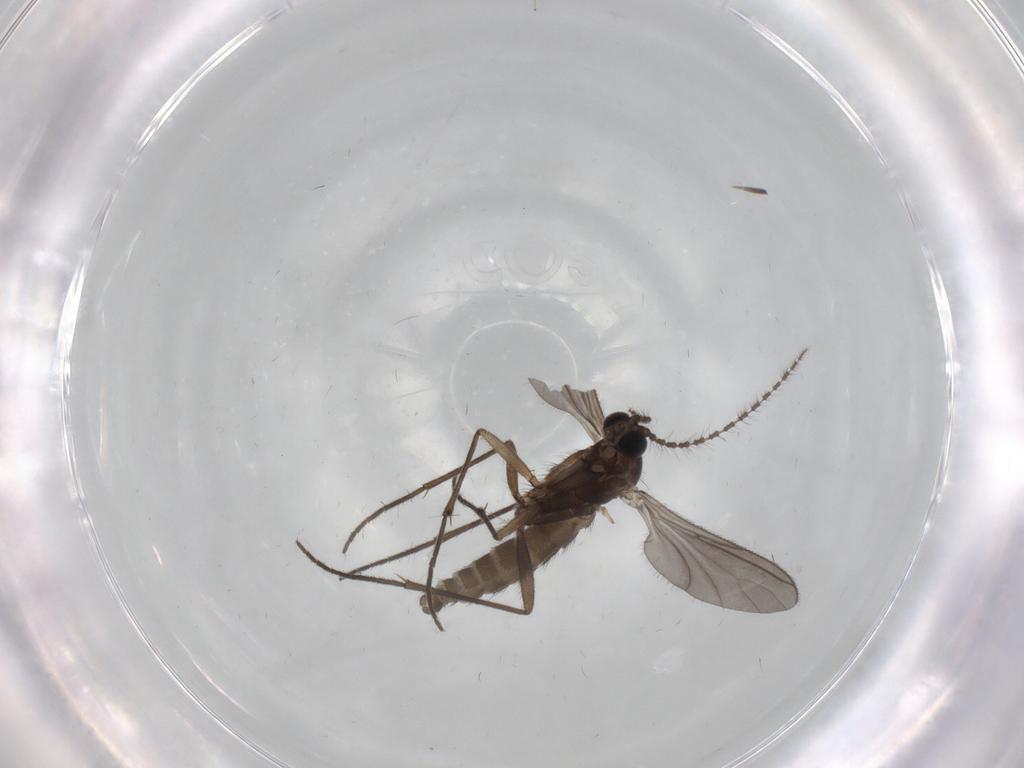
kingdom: Animalia
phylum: Arthropoda
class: Insecta
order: Diptera
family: Sciaridae
